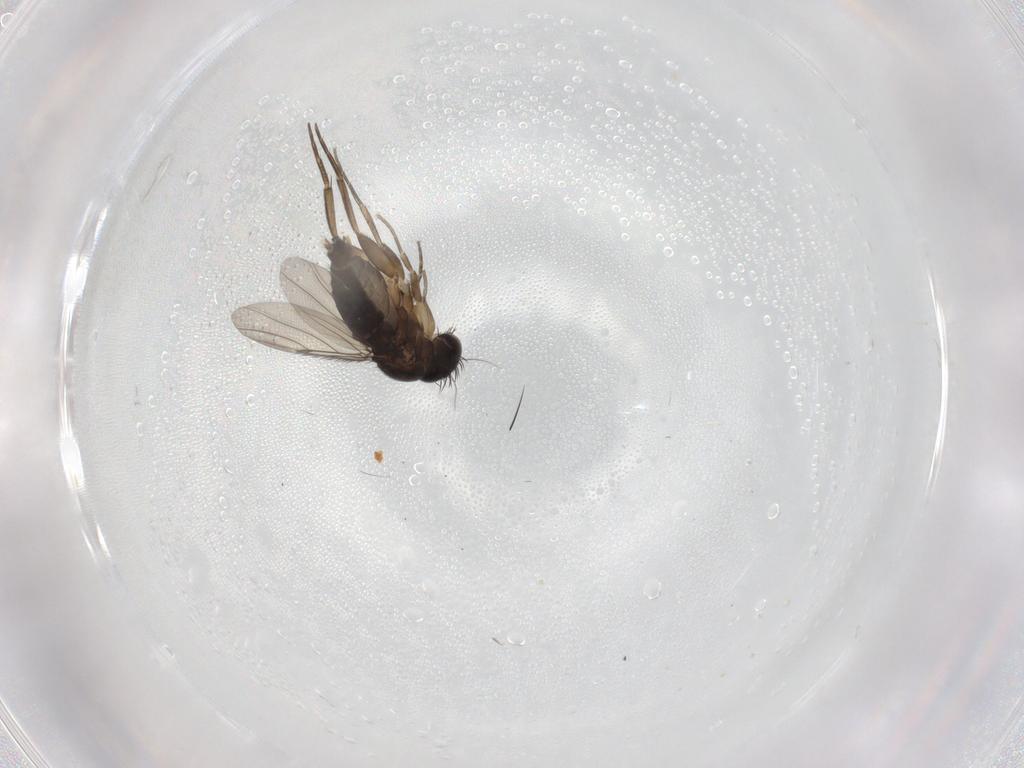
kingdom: Animalia
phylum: Arthropoda
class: Insecta
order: Diptera
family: Phoridae
